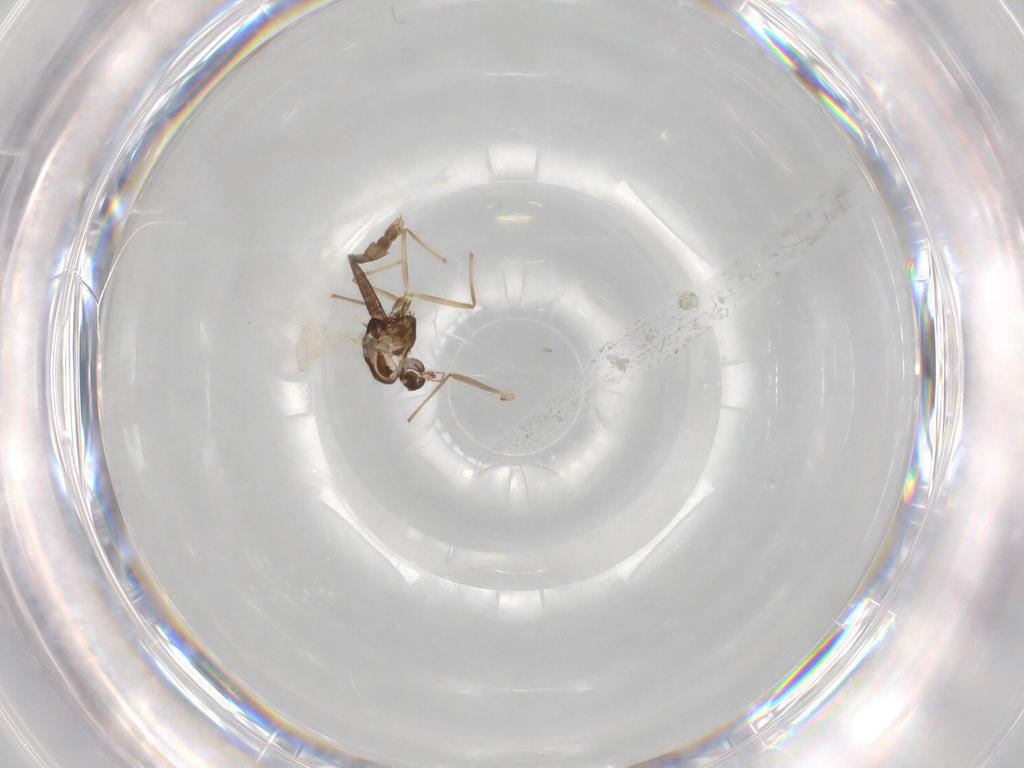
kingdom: Animalia
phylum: Arthropoda
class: Insecta
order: Diptera
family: Chironomidae
